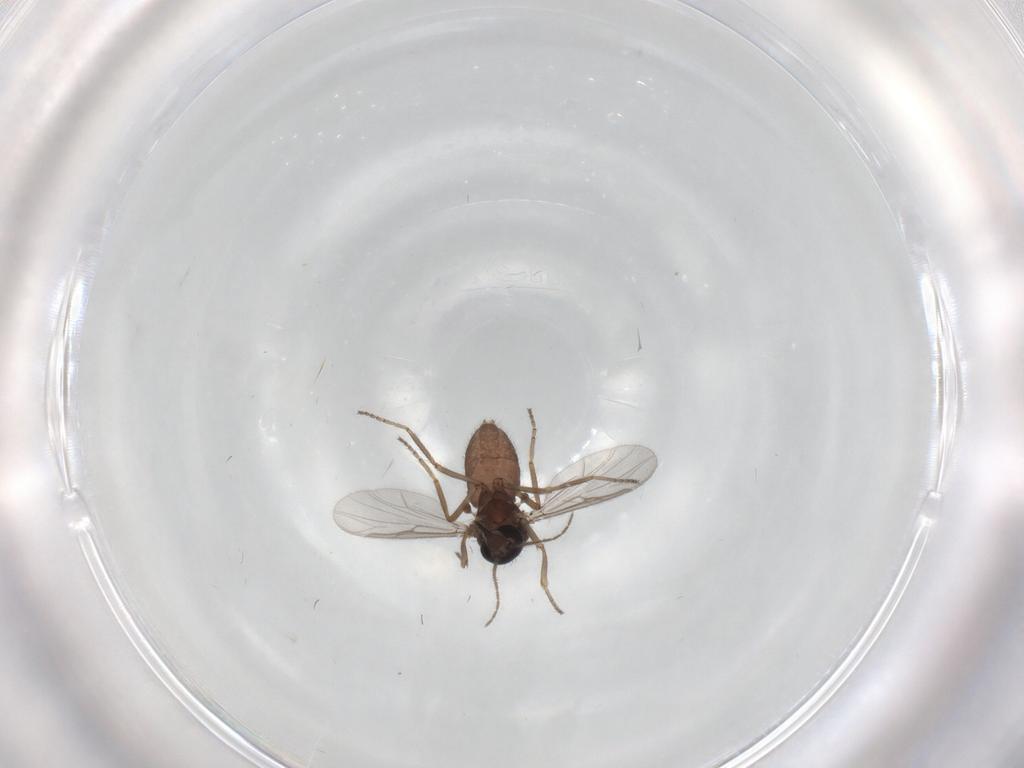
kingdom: Animalia
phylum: Arthropoda
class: Insecta
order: Diptera
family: Ceratopogonidae
